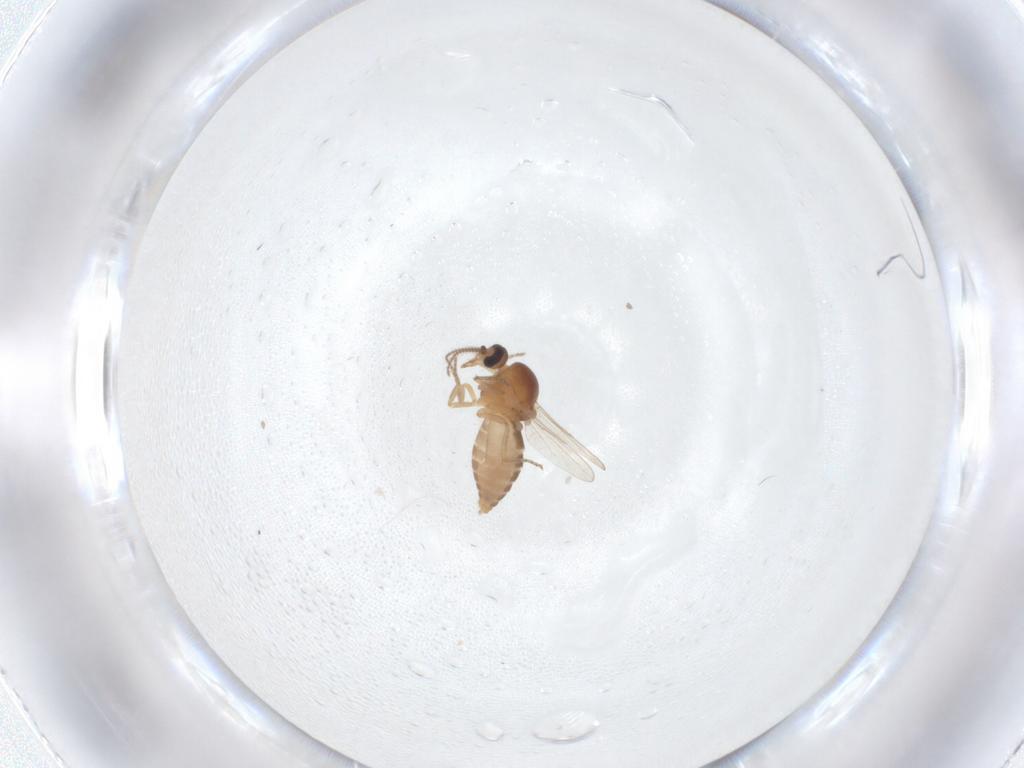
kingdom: Animalia
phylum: Arthropoda
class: Insecta
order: Diptera
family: Ceratopogonidae
